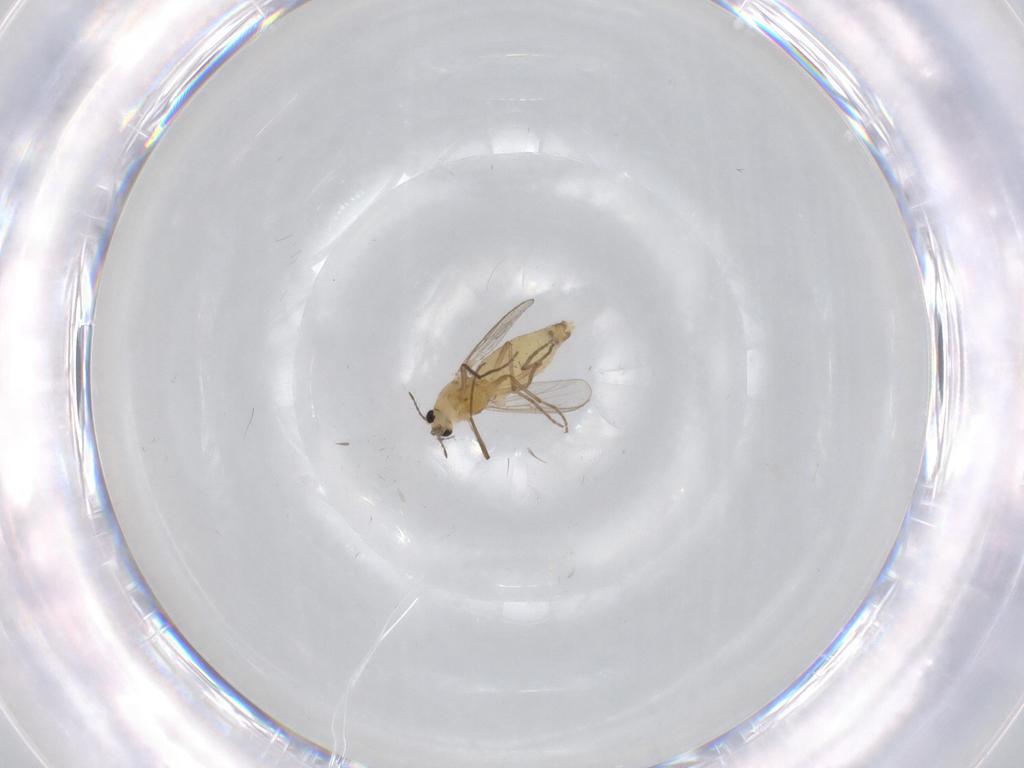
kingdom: Animalia
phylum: Arthropoda
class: Insecta
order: Diptera
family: Chironomidae
